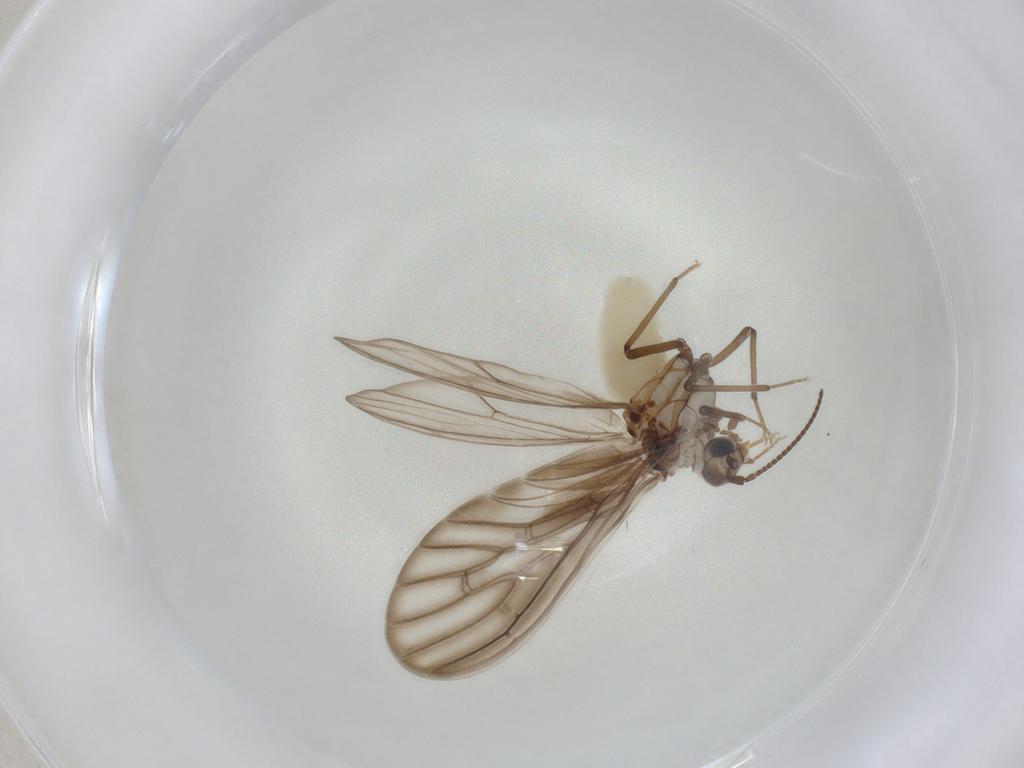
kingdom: Animalia
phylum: Arthropoda
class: Insecta
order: Neuroptera
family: Coniopterygidae
